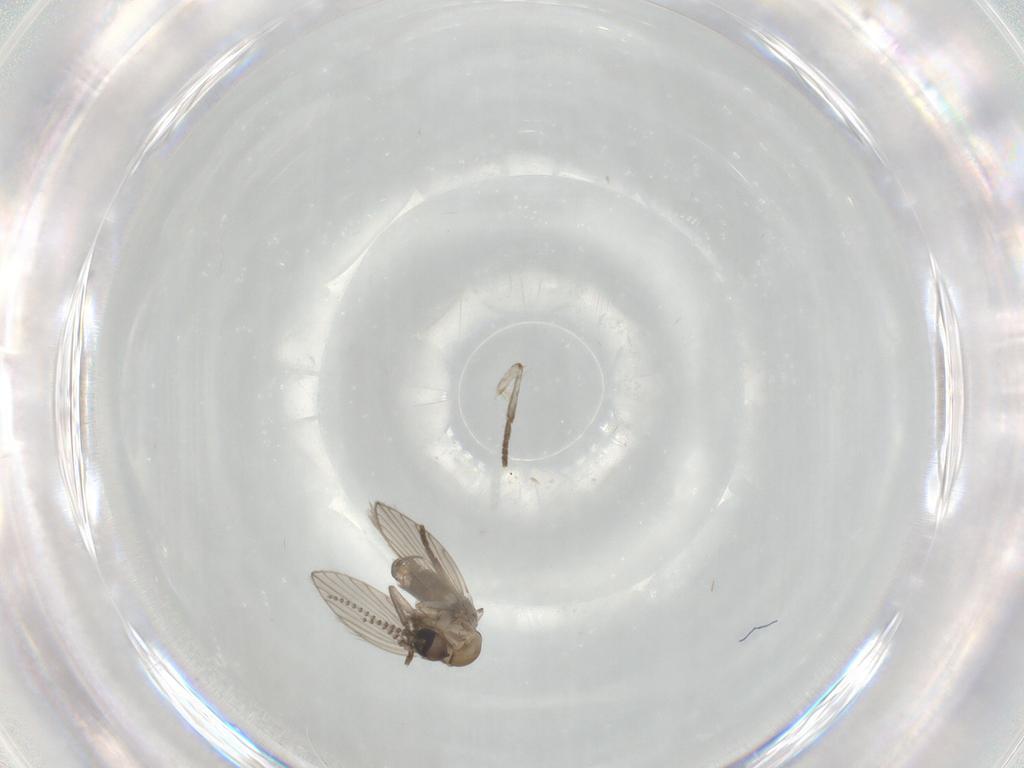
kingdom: Animalia
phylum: Arthropoda
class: Insecta
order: Diptera
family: Psychodidae
